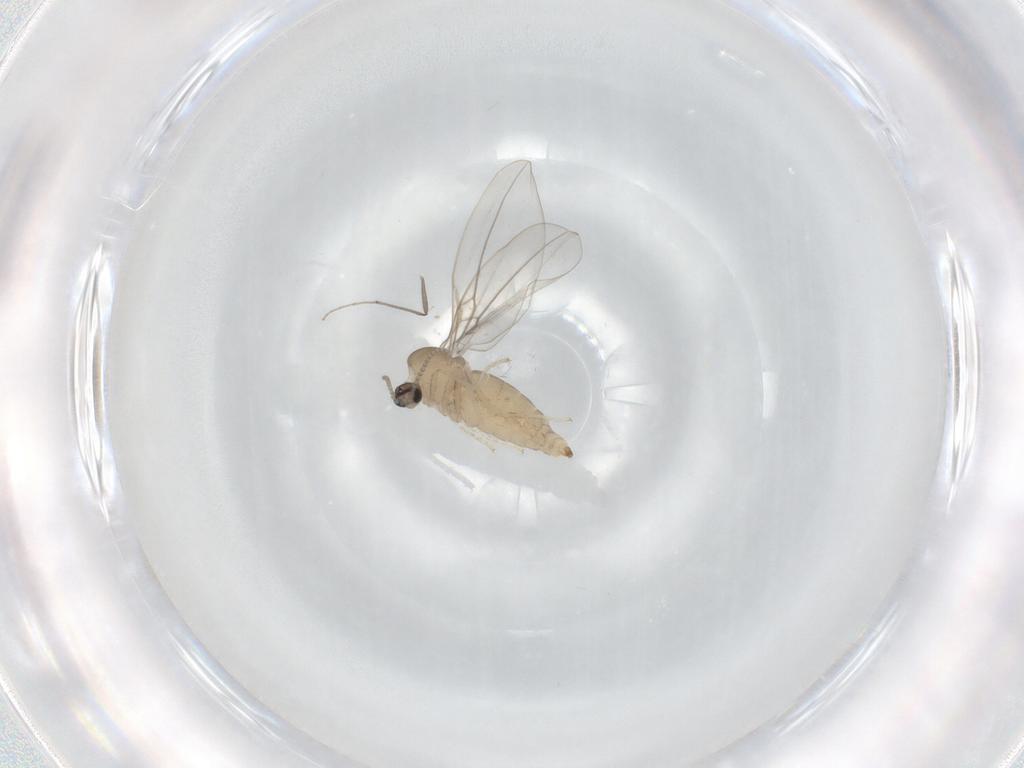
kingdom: Animalia
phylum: Arthropoda
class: Insecta
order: Diptera
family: Cecidomyiidae
